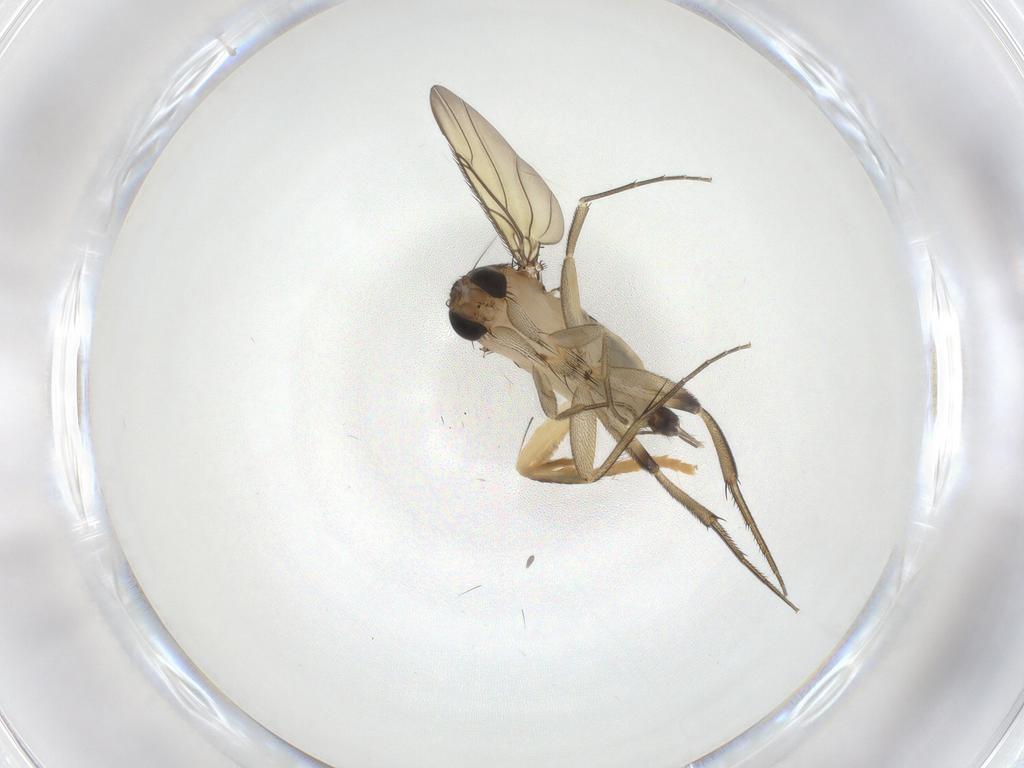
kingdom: Animalia
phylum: Arthropoda
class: Insecta
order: Diptera
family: Phoridae
